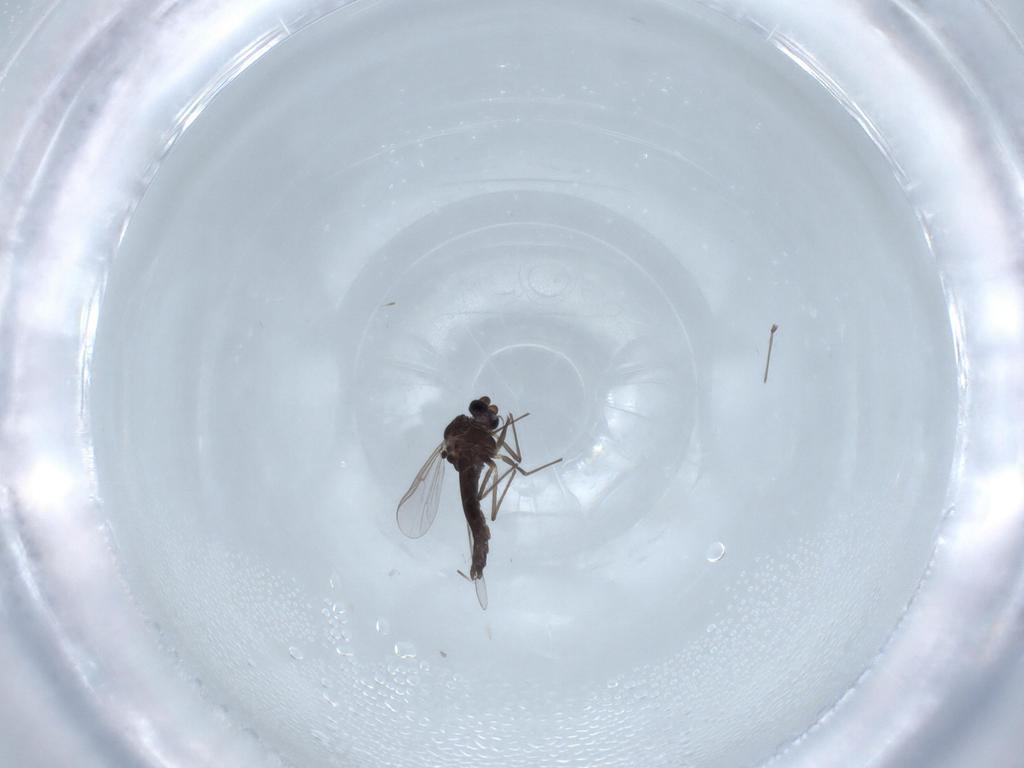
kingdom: Animalia
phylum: Arthropoda
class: Insecta
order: Diptera
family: Chironomidae
